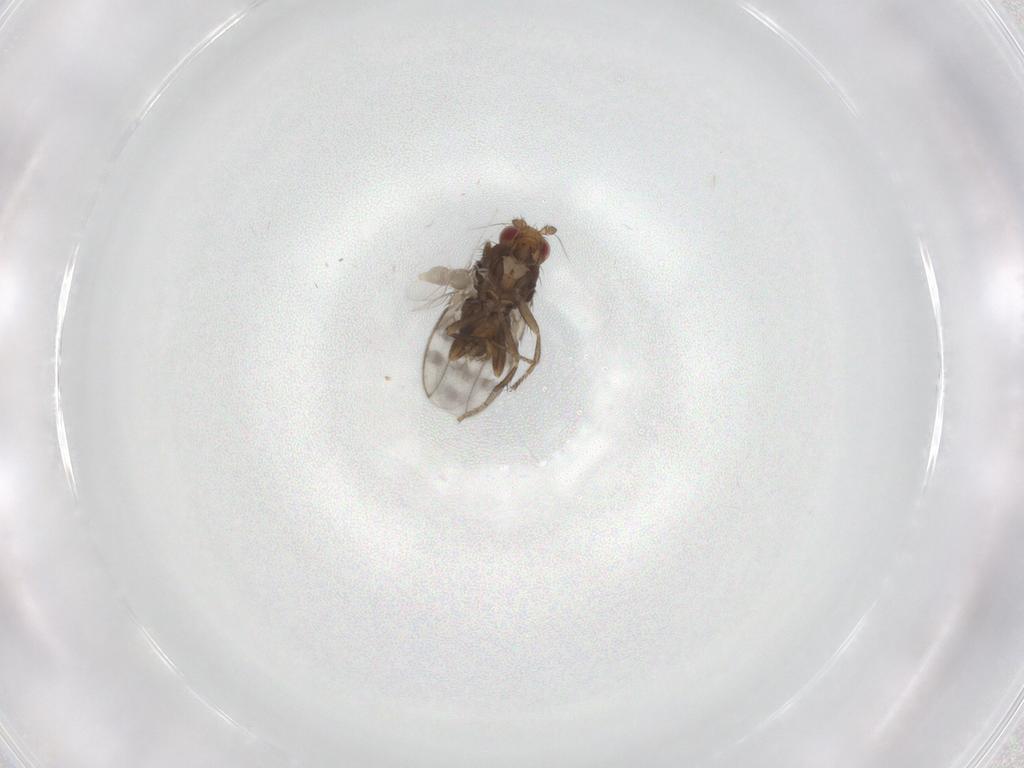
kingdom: Animalia
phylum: Arthropoda
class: Insecta
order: Diptera
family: Sphaeroceridae
